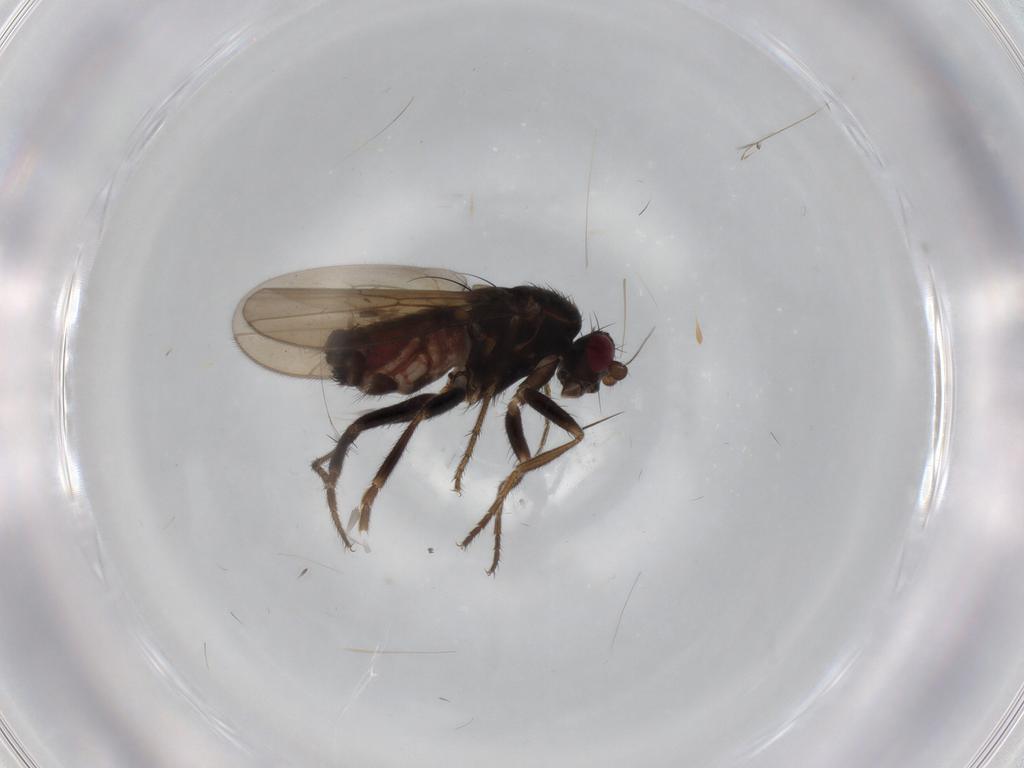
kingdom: Animalia
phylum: Arthropoda
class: Insecta
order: Diptera
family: Sphaeroceridae
